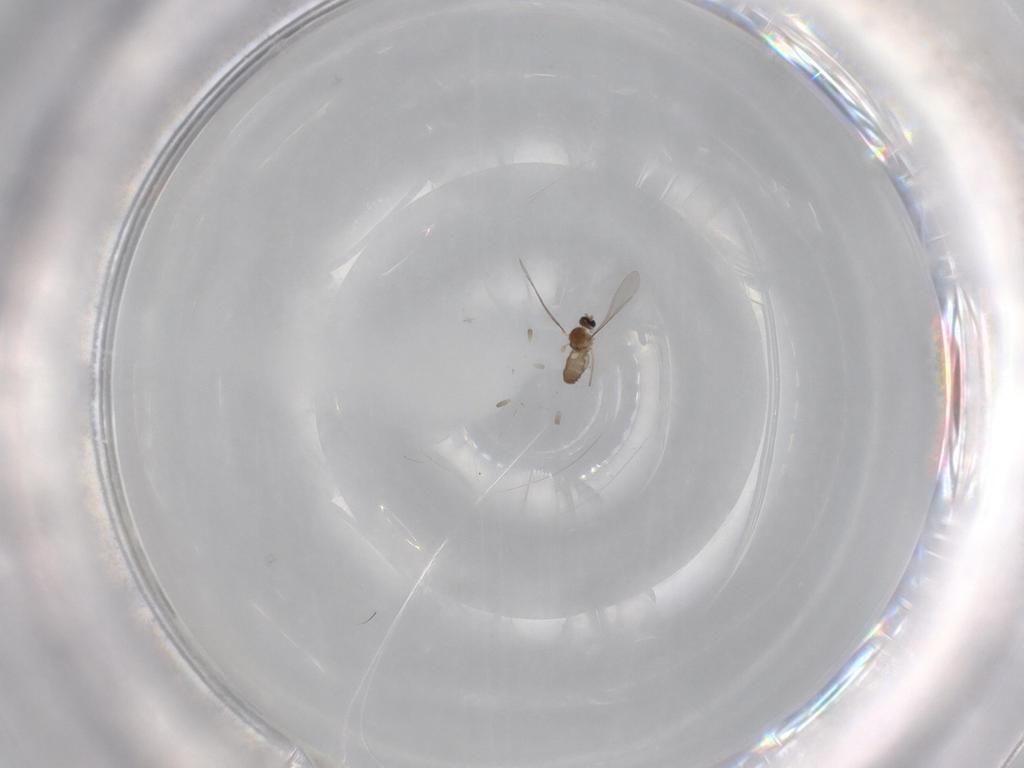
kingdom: Animalia
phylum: Arthropoda
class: Insecta
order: Diptera
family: Cecidomyiidae
